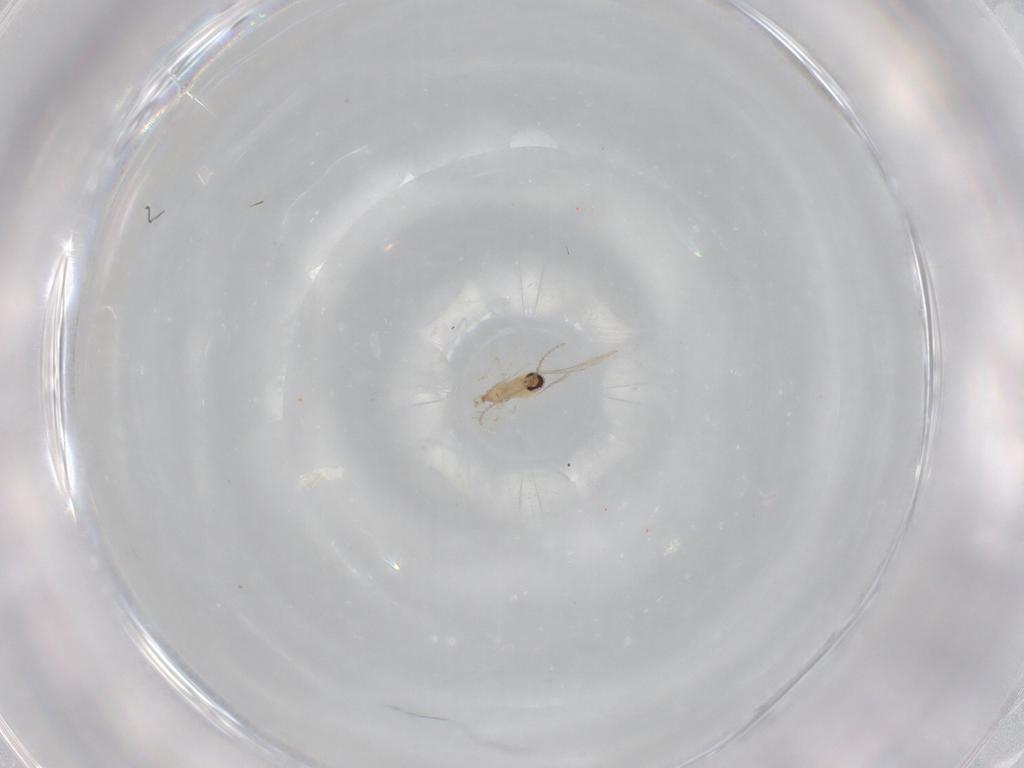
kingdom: Animalia
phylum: Arthropoda
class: Insecta
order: Diptera
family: Cecidomyiidae
